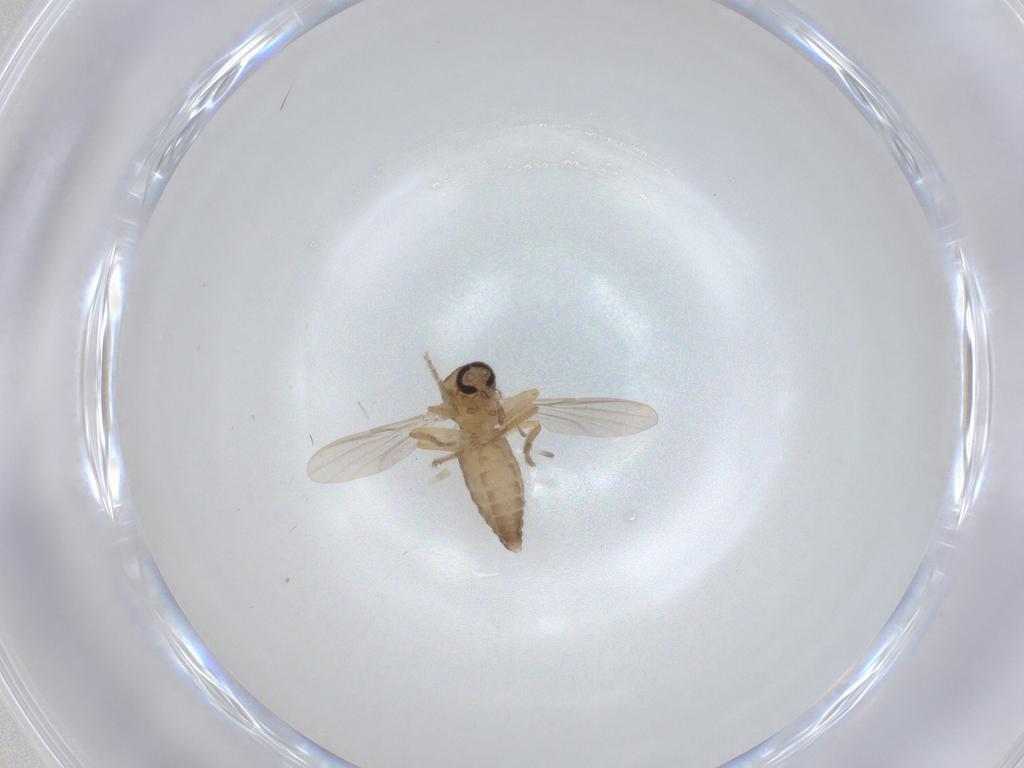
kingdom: Animalia
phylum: Arthropoda
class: Insecta
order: Diptera
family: Ceratopogonidae
